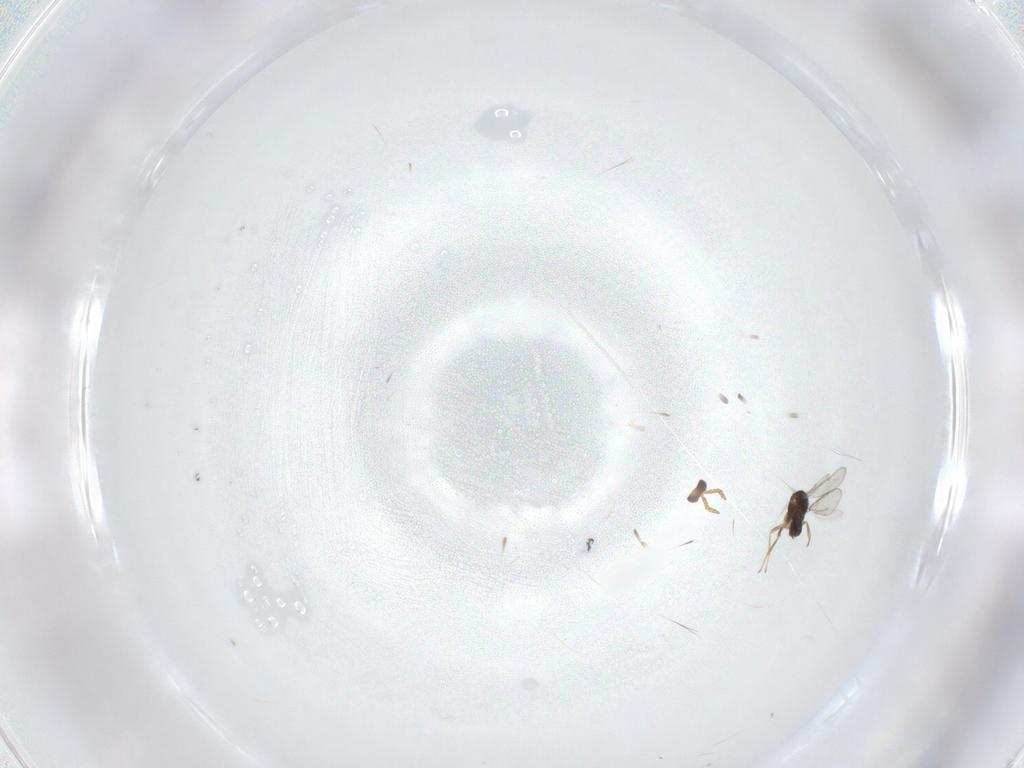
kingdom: Animalia
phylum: Arthropoda
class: Insecta
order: Hymenoptera
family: Aphelinidae
